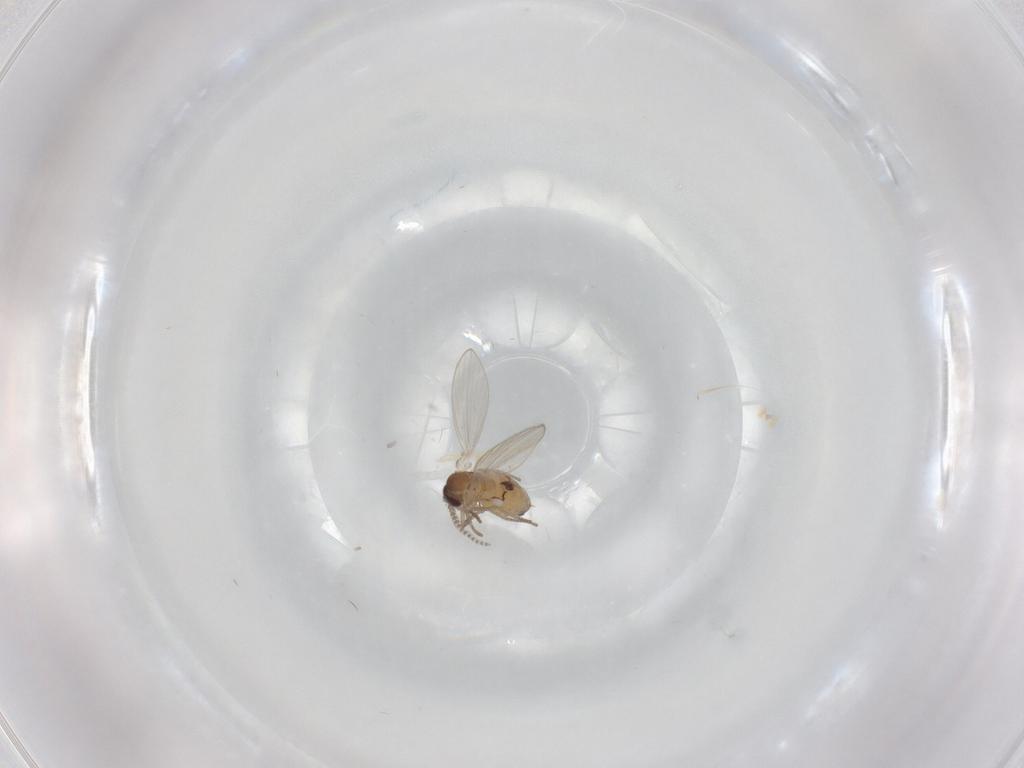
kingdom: Animalia
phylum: Arthropoda
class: Insecta
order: Diptera
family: Psychodidae
